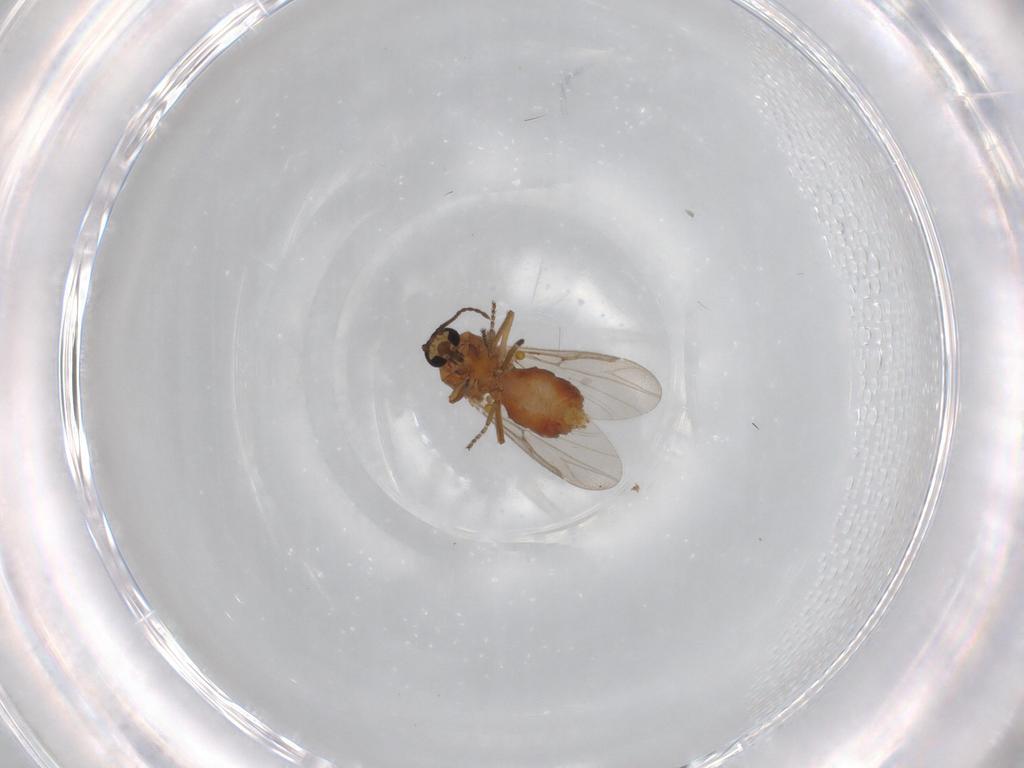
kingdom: Animalia
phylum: Arthropoda
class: Insecta
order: Diptera
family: Ceratopogonidae
